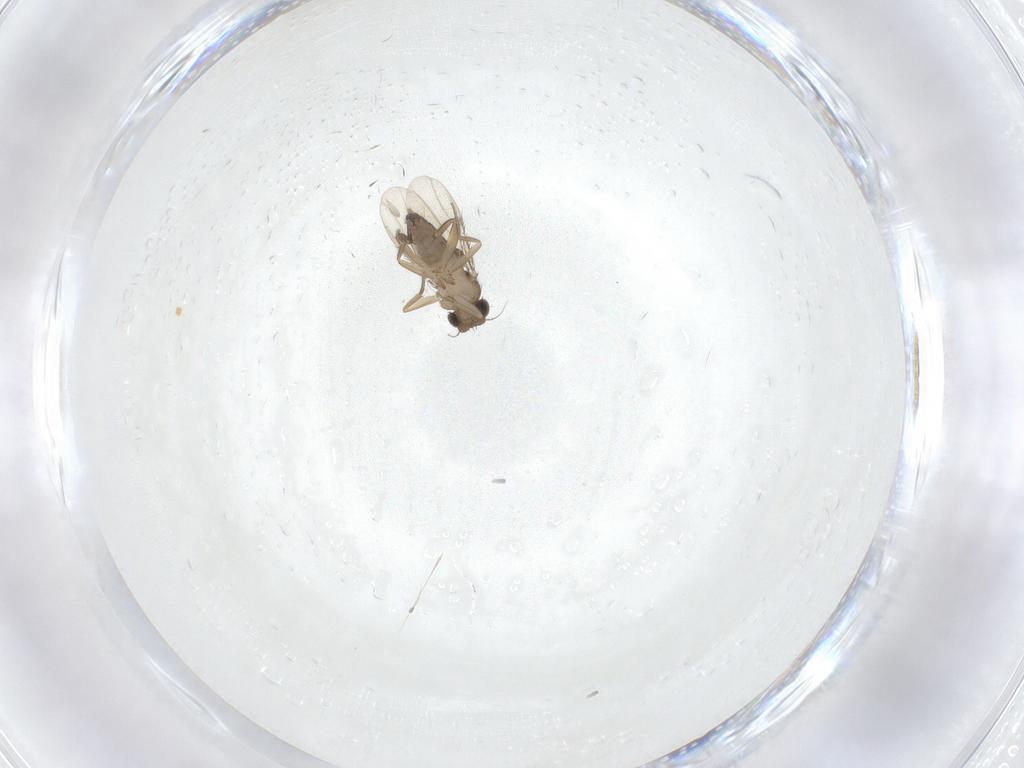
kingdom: Animalia
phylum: Arthropoda
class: Insecta
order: Diptera
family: Phoridae
